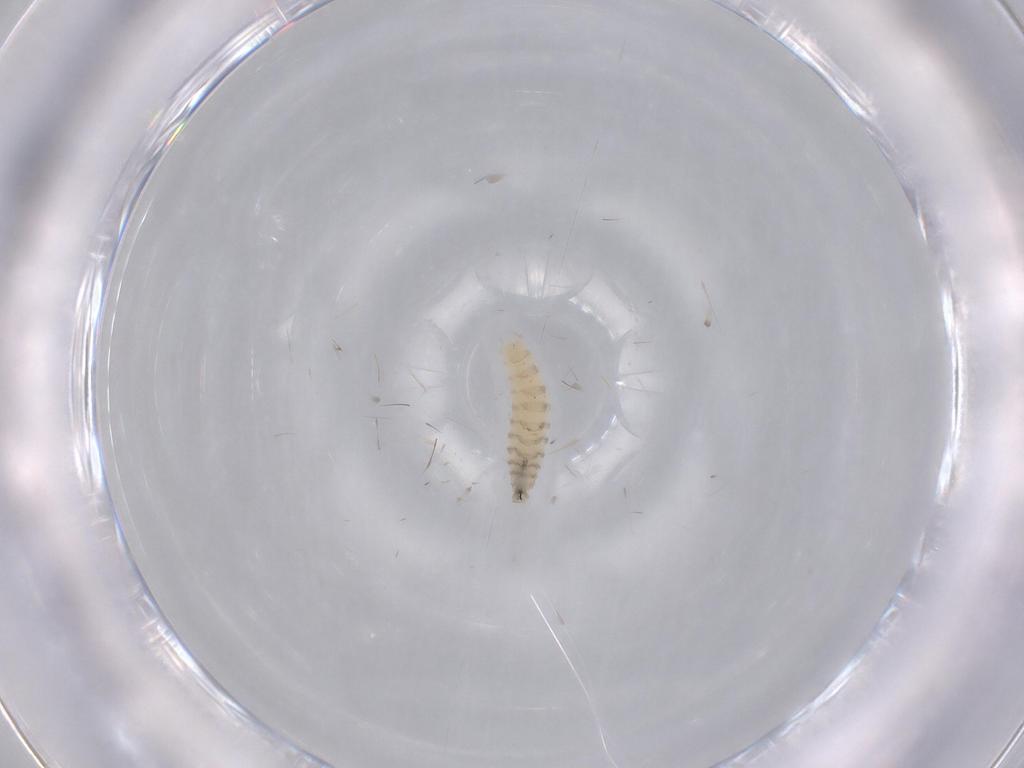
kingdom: Animalia
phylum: Arthropoda
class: Insecta
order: Diptera
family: Sarcophagidae
